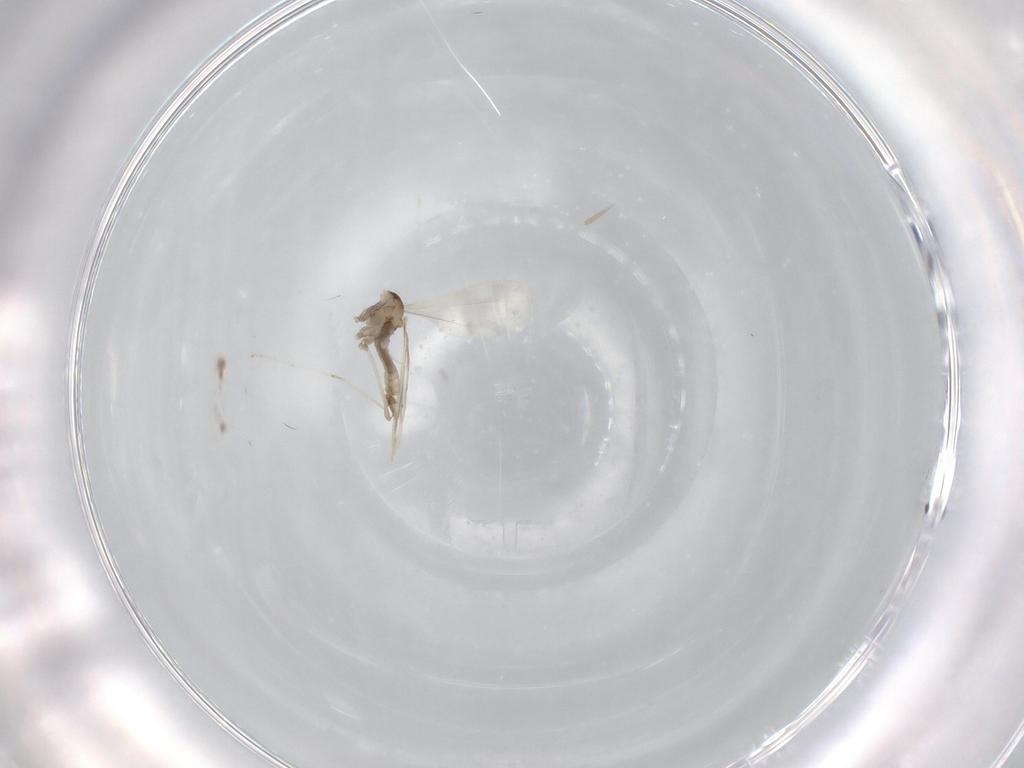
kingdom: Animalia
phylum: Arthropoda
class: Insecta
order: Diptera
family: Cecidomyiidae
